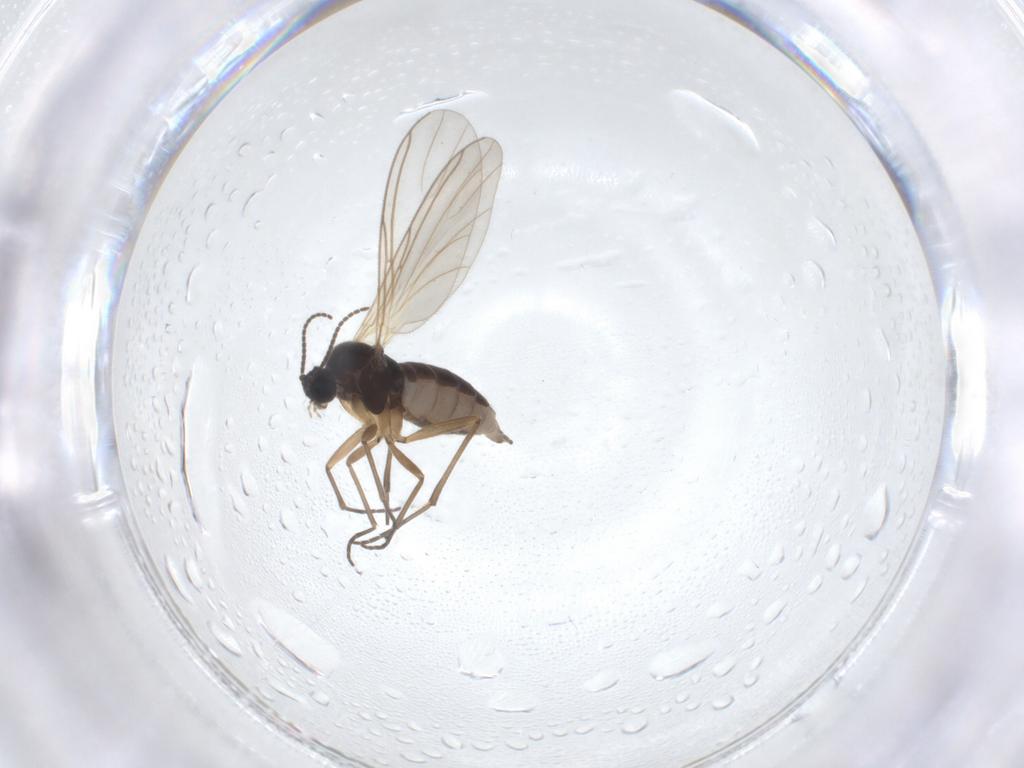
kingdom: Animalia
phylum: Arthropoda
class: Insecta
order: Diptera
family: Sciaridae
